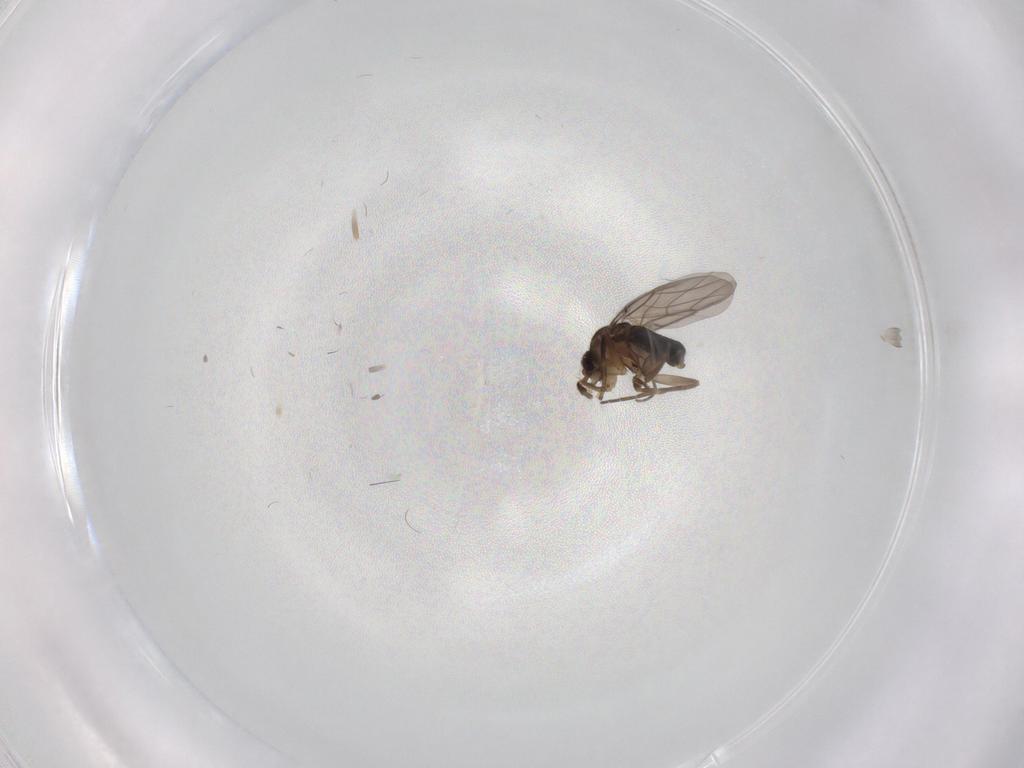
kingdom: Animalia
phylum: Arthropoda
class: Insecta
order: Diptera
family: Phoridae
